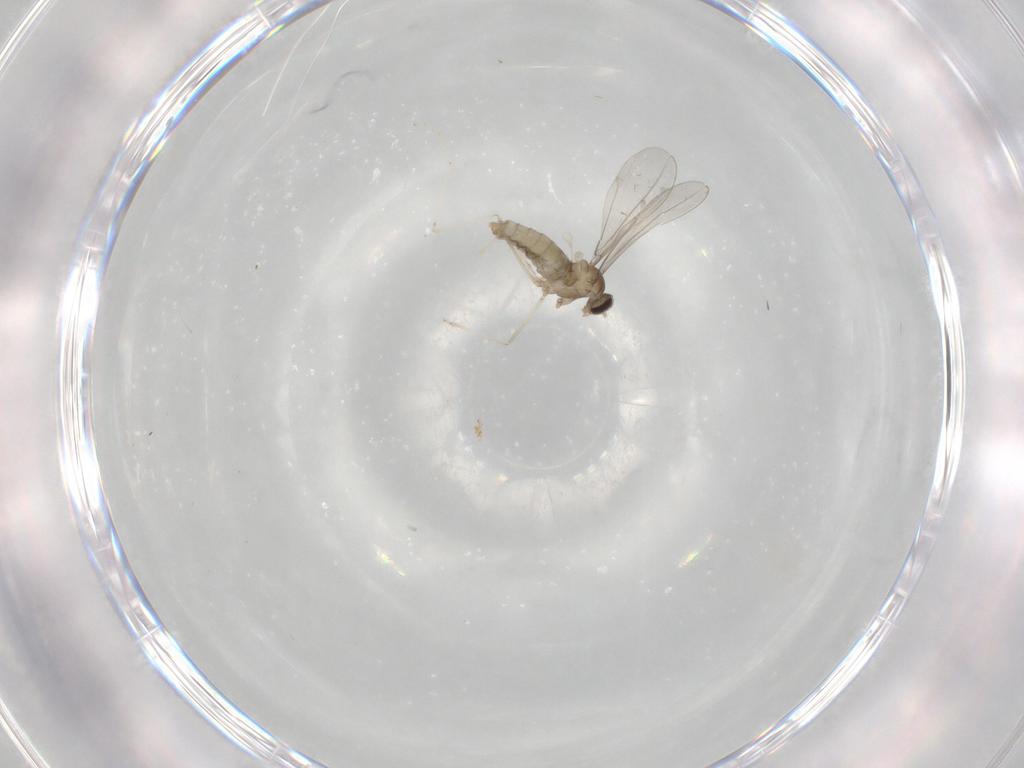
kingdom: Animalia
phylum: Arthropoda
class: Insecta
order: Diptera
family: Cecidomyiidae
